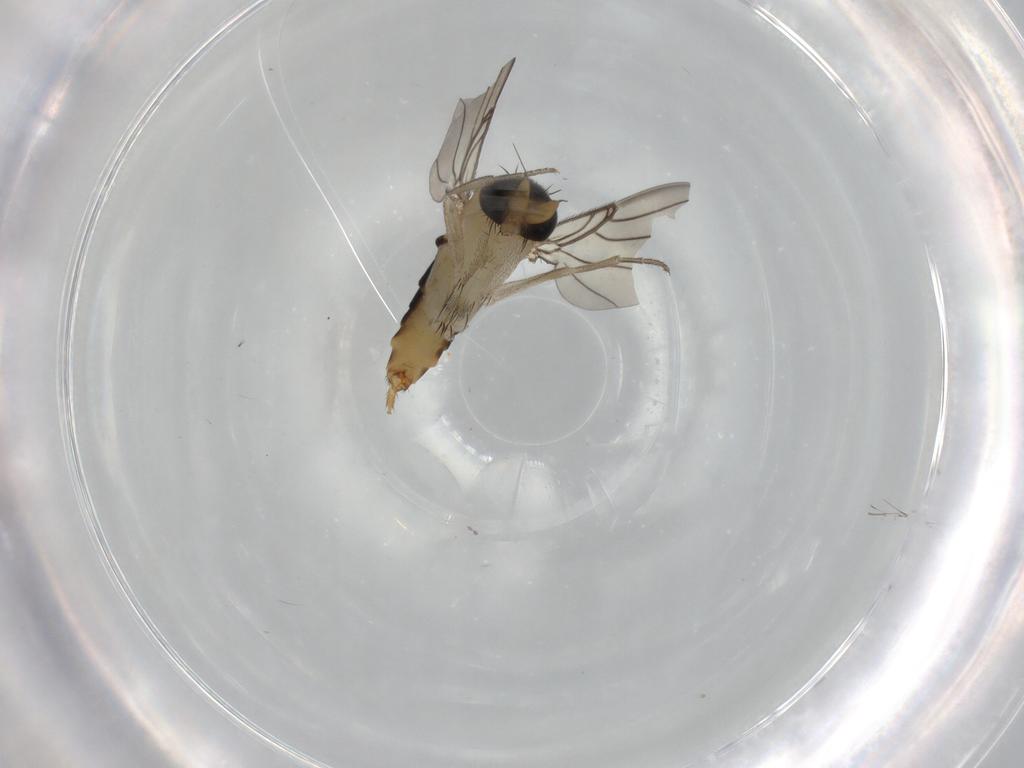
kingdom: Animalia
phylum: Arthropoda
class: Insecta
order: Diptera
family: Phoridae
